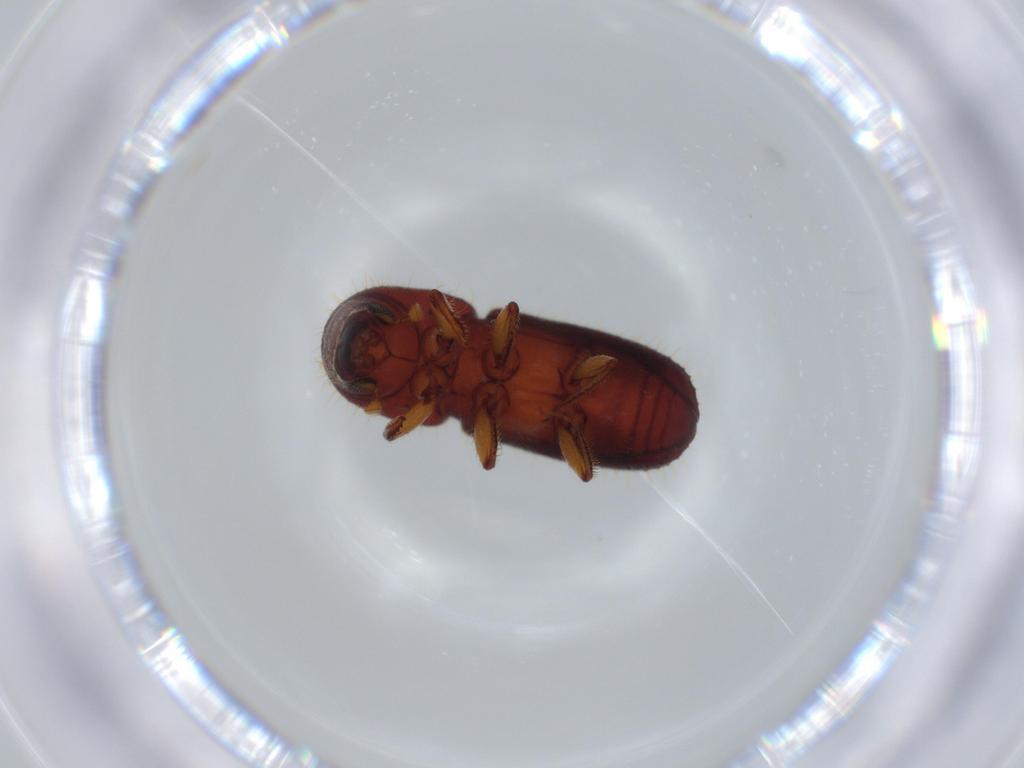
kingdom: Animalia
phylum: Arthropoda
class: Insecta
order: Coleoptera
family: Curculionidae
